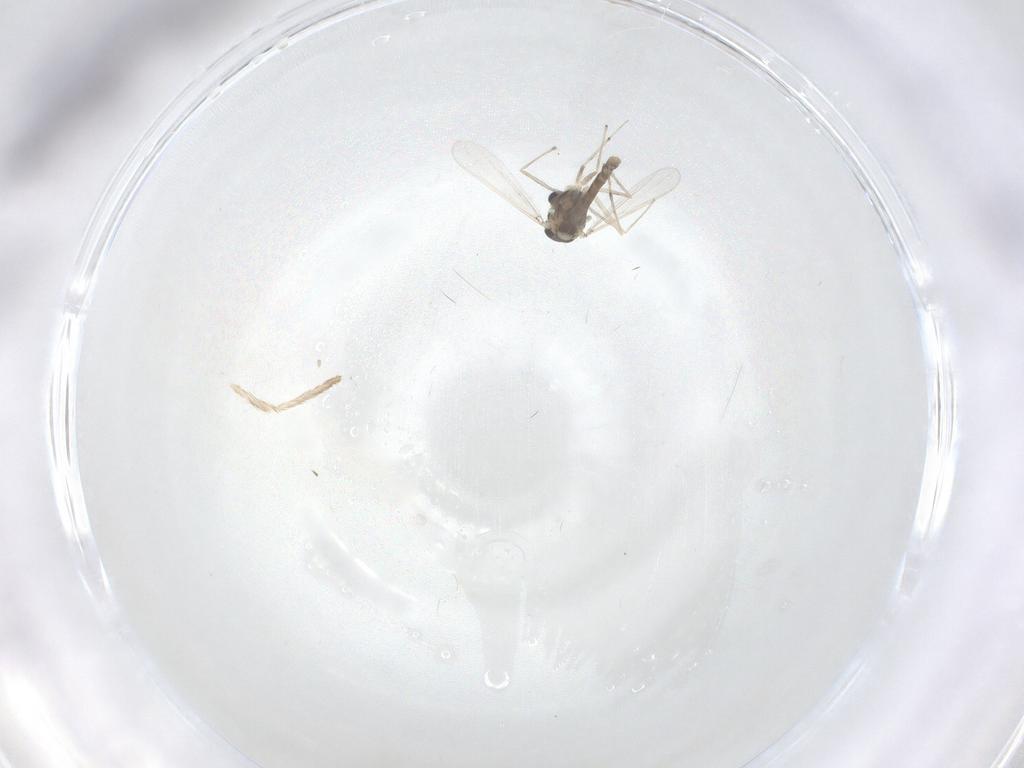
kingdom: Animalia
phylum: Arthropoda
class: Insecta
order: Diptera
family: Chironomidae
